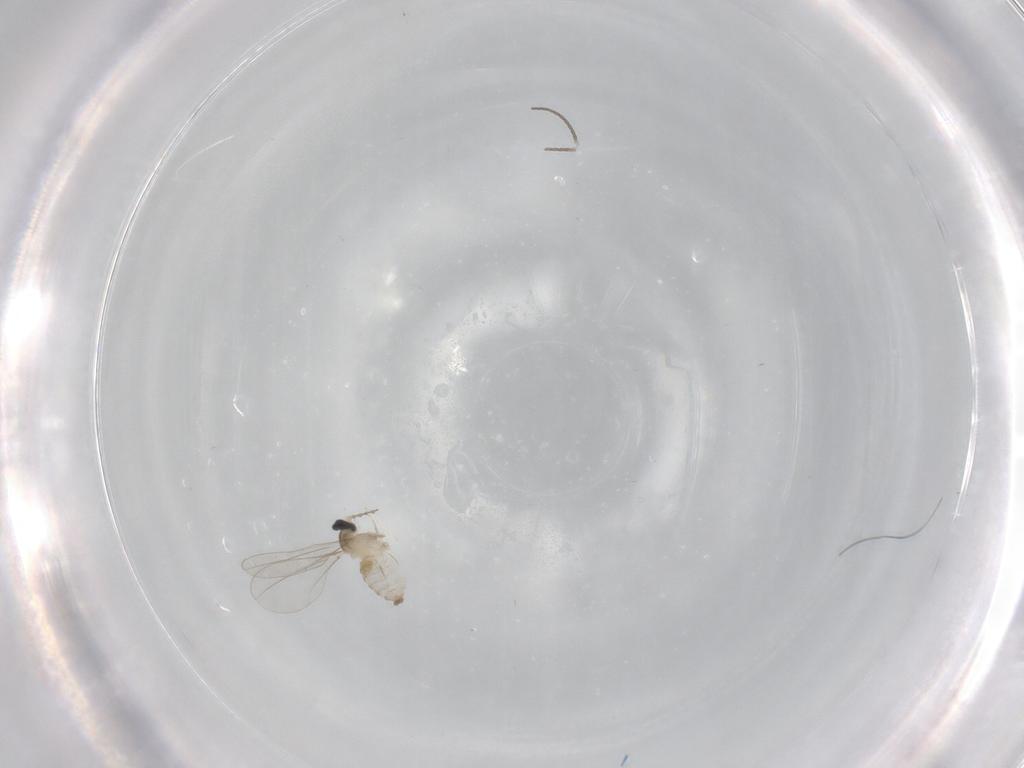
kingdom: Animalia
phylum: Arthropoda
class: Insecta
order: Diptera
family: Cecidomyiidae
